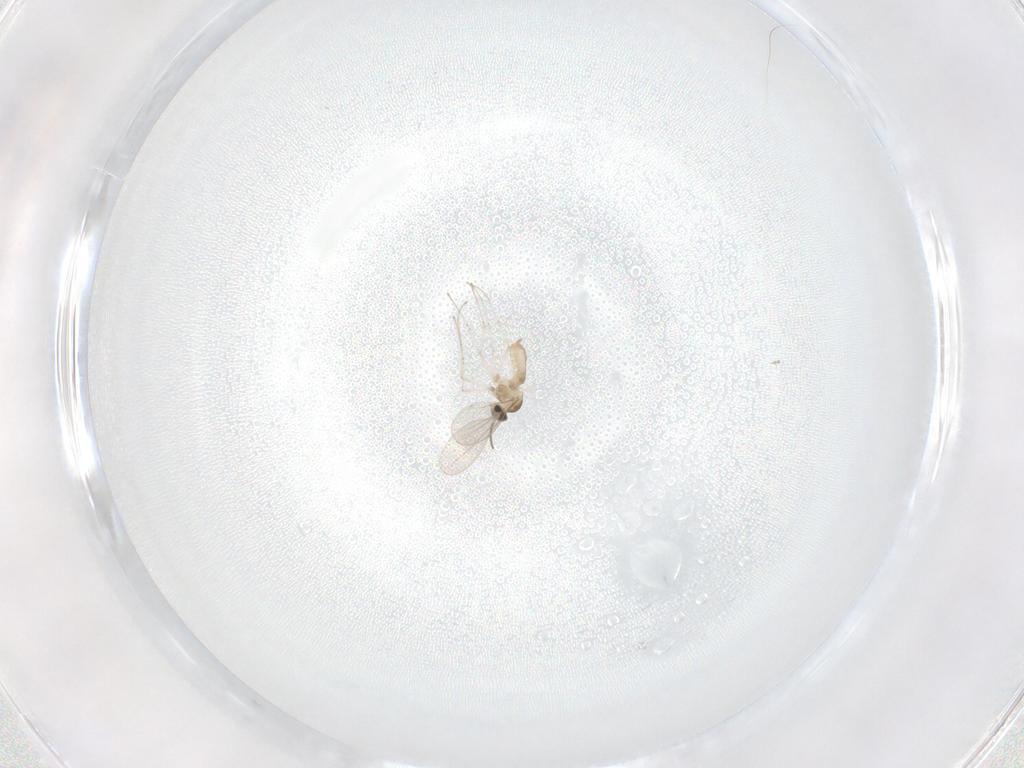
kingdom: Animalia
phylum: Arthropoda
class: Insecta
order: Diptera
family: Cecidomyiidae
